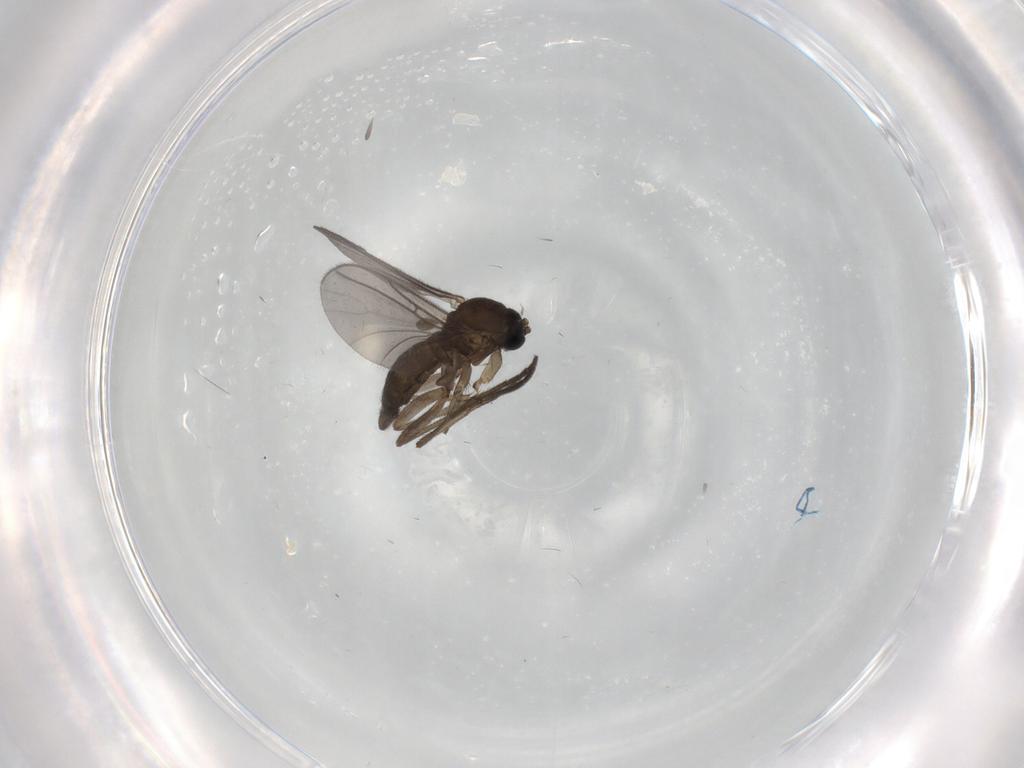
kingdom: Animalia
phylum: Arthropoda
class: Insecta
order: Diptera
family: Sciaridae
